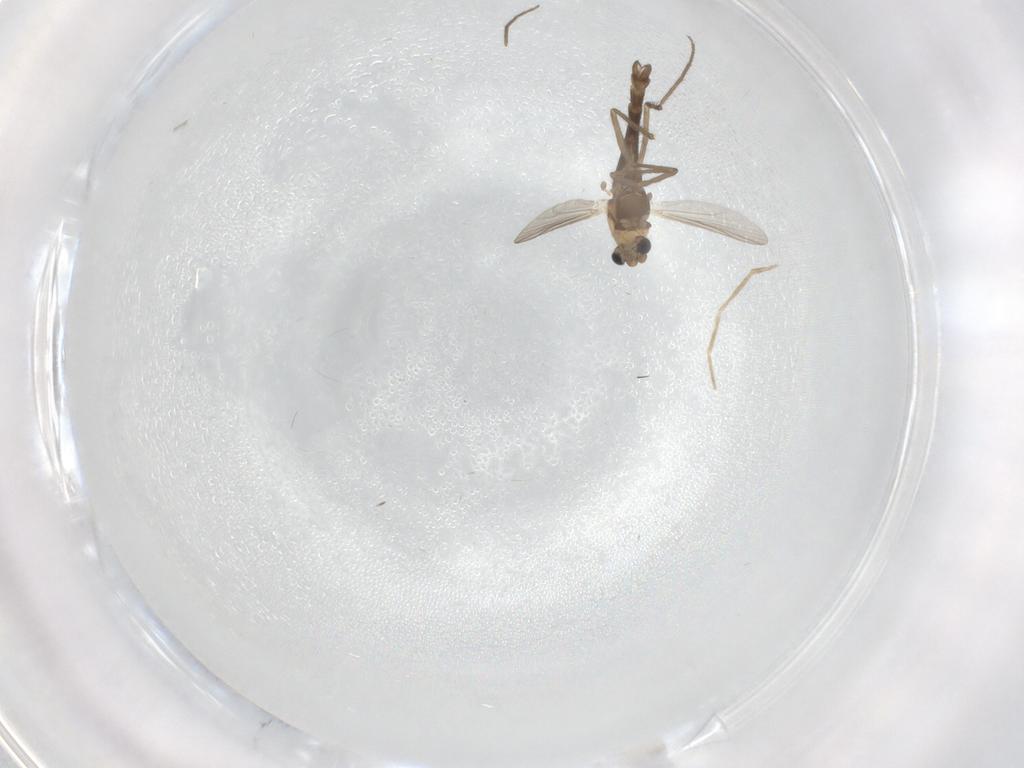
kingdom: Animalia
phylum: Arthropoda
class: Insecta
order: Diptera
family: Chironomidae
